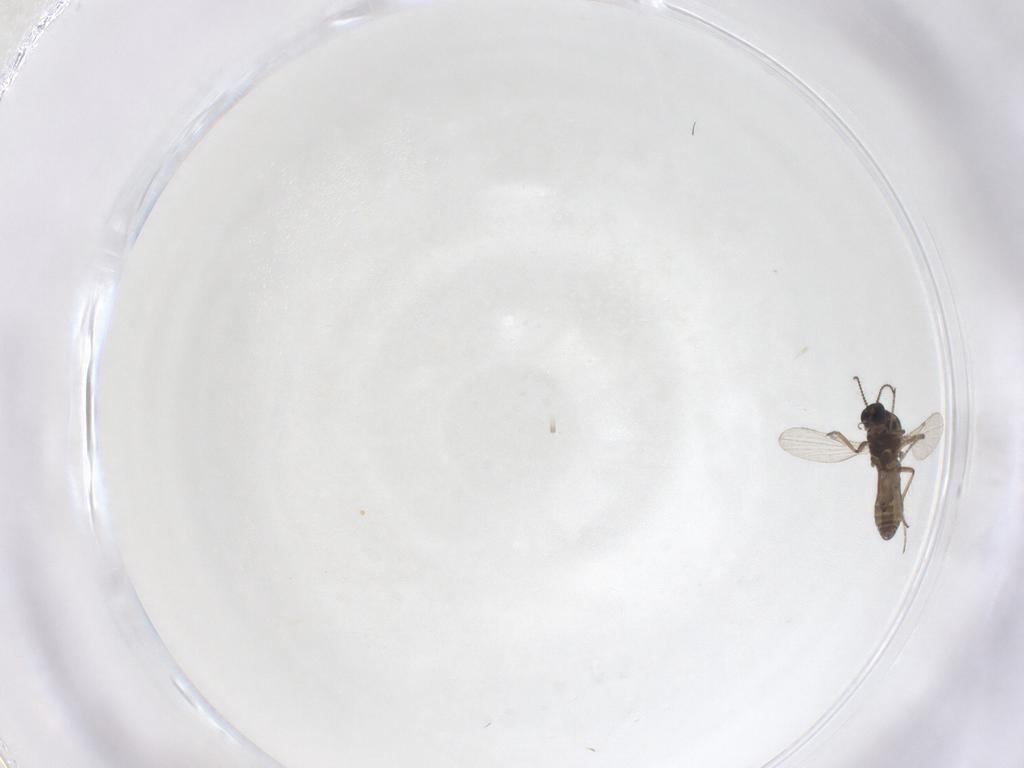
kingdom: Animalia
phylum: Arthropoda
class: Insecta
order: Diptera
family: Ceratopogonidae
